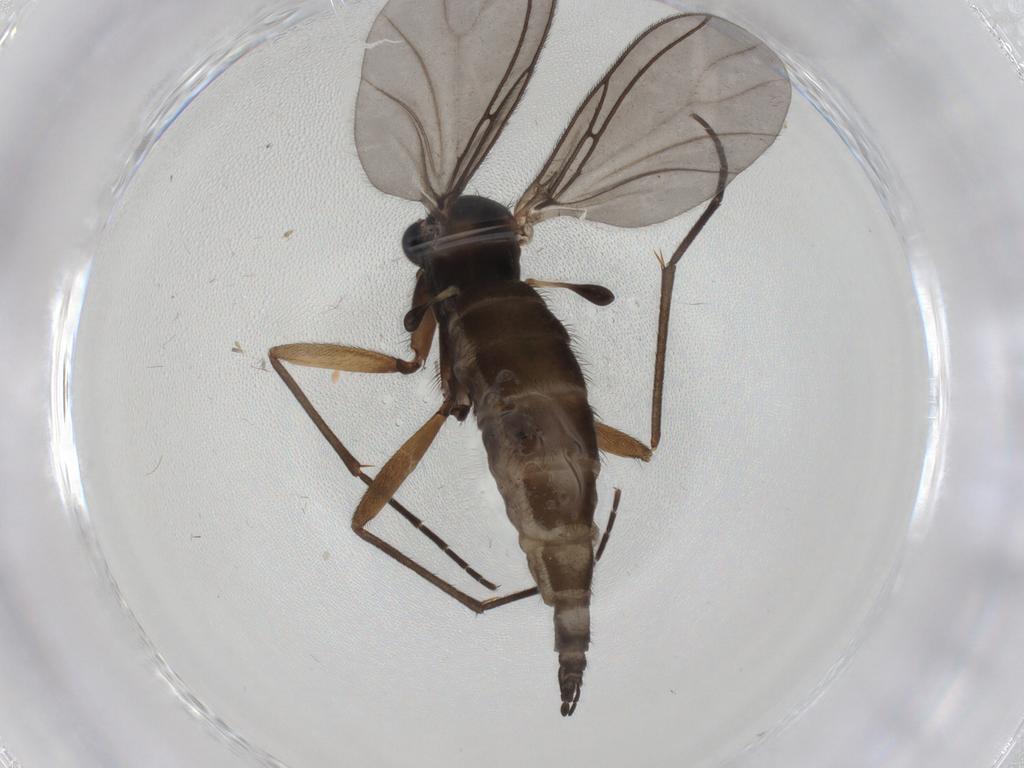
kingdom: Animalia
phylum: Arthropoda
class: Insecta
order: Diptera
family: Sciaridae
